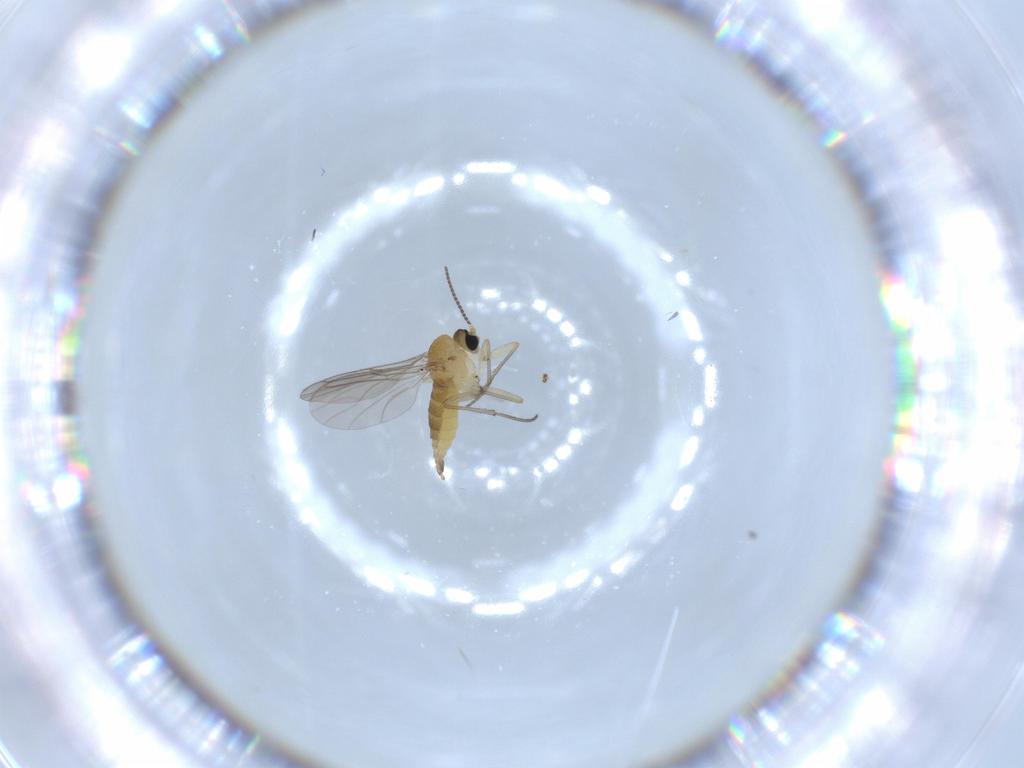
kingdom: Animalia
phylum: Arthropoda
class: Insecta
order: Diptera
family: Sciaridae
